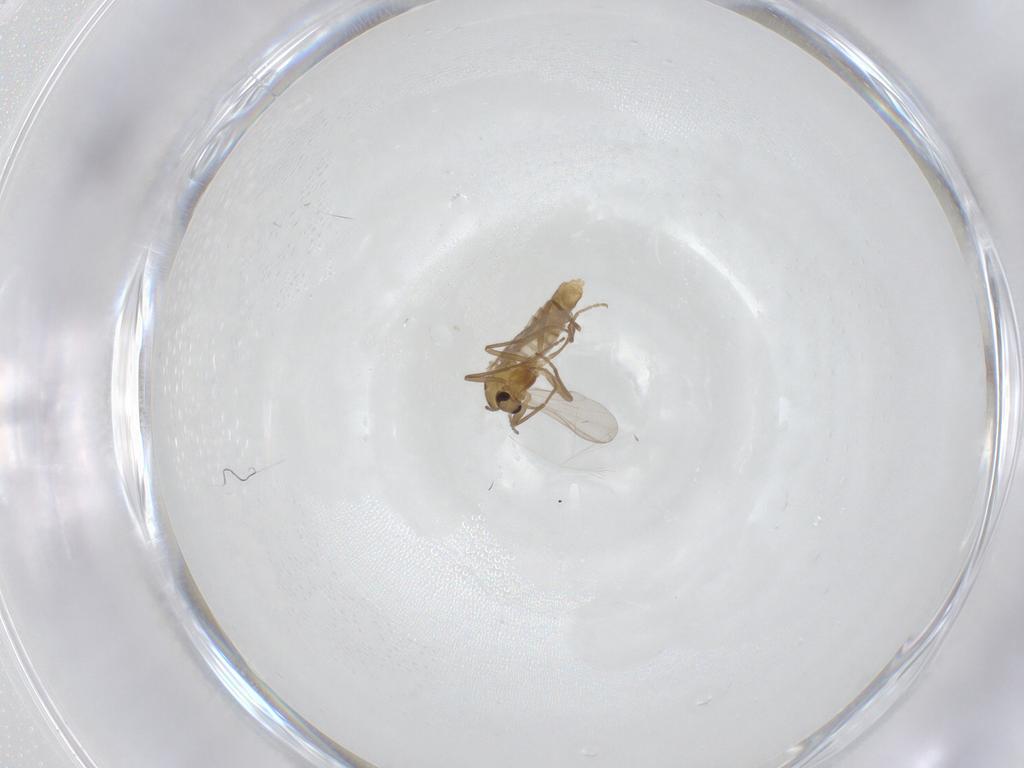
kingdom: Animalia
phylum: Arthropoda
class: Insecta
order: Diptera
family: Chironomidae
